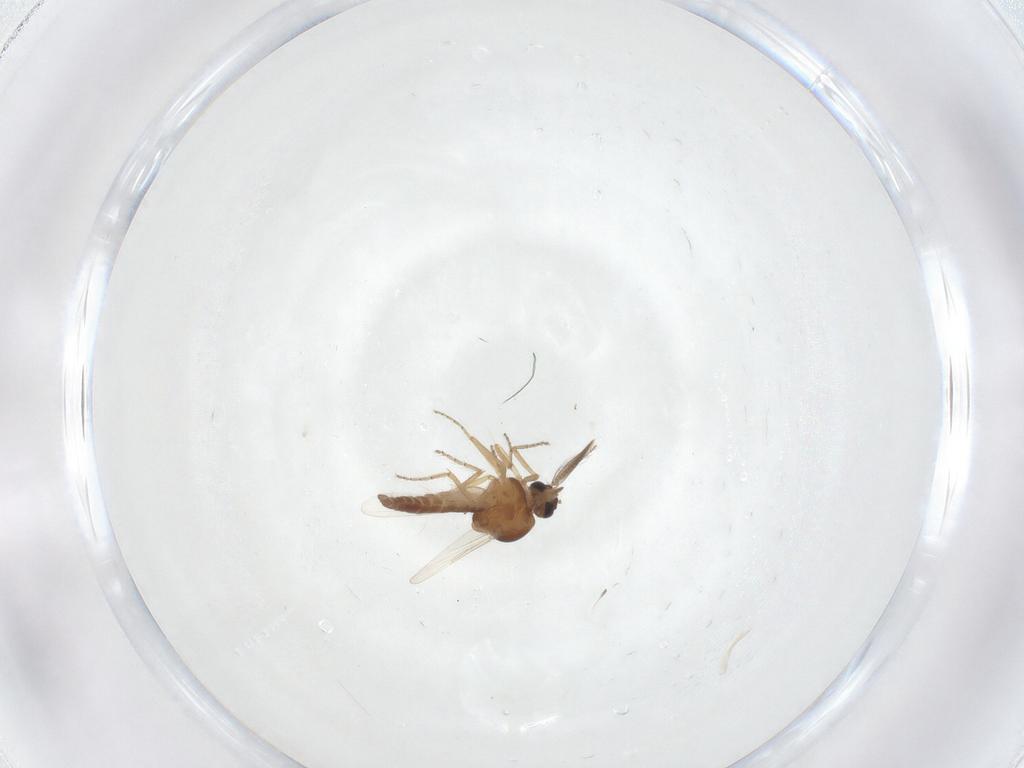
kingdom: Animalia
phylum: Arthropoda
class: Insecta
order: Diptera
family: Ceratopogonidae
